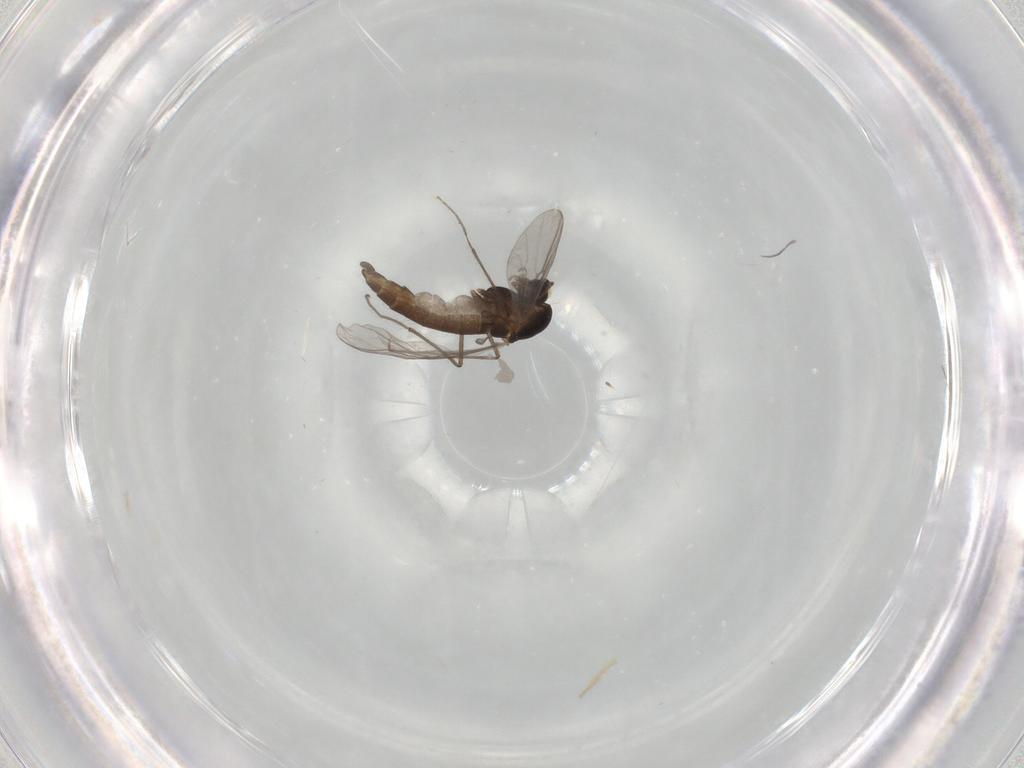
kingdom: Animalia
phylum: Arthropoda
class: Insecta
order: Diptera
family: Chironomidae
